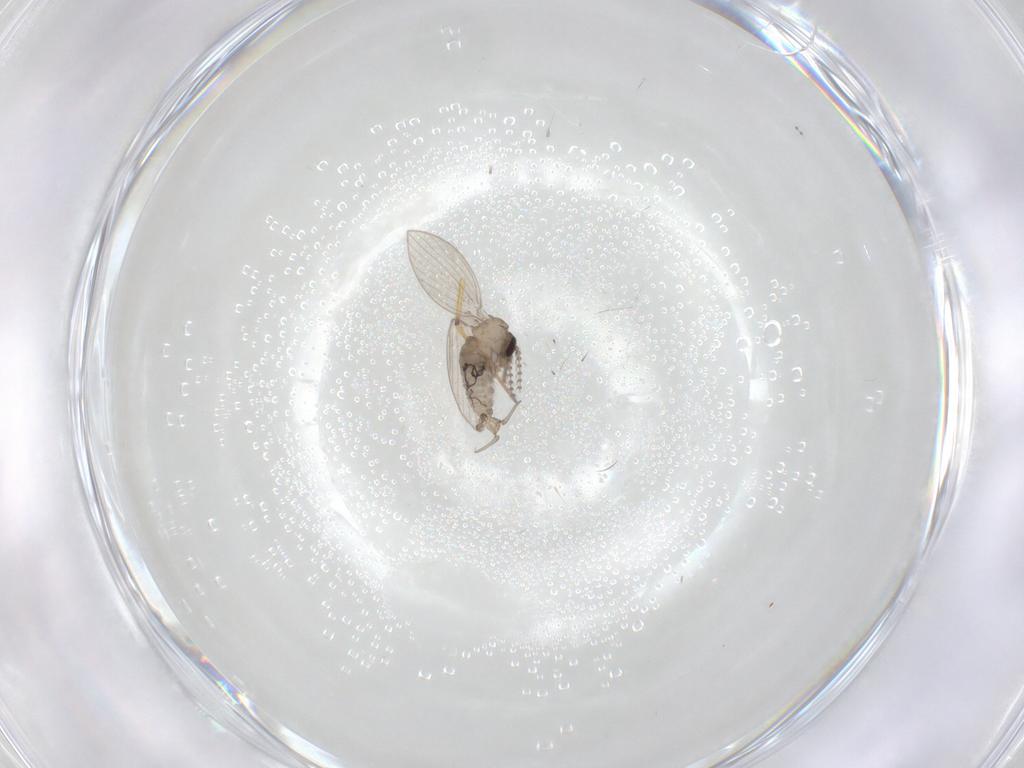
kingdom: Animalia
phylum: Arthropoda
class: Insecta
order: Diptera
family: Psychodidae
